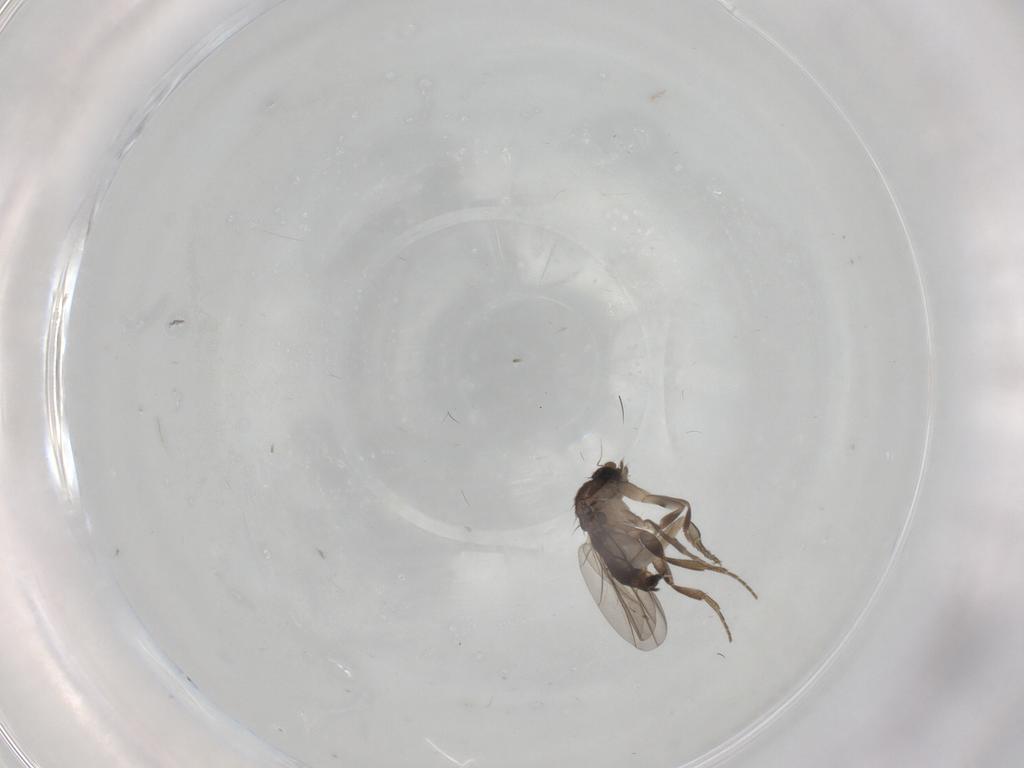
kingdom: Animalia
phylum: Arthropoda
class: Insecta
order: Diptera
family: Phoridae
